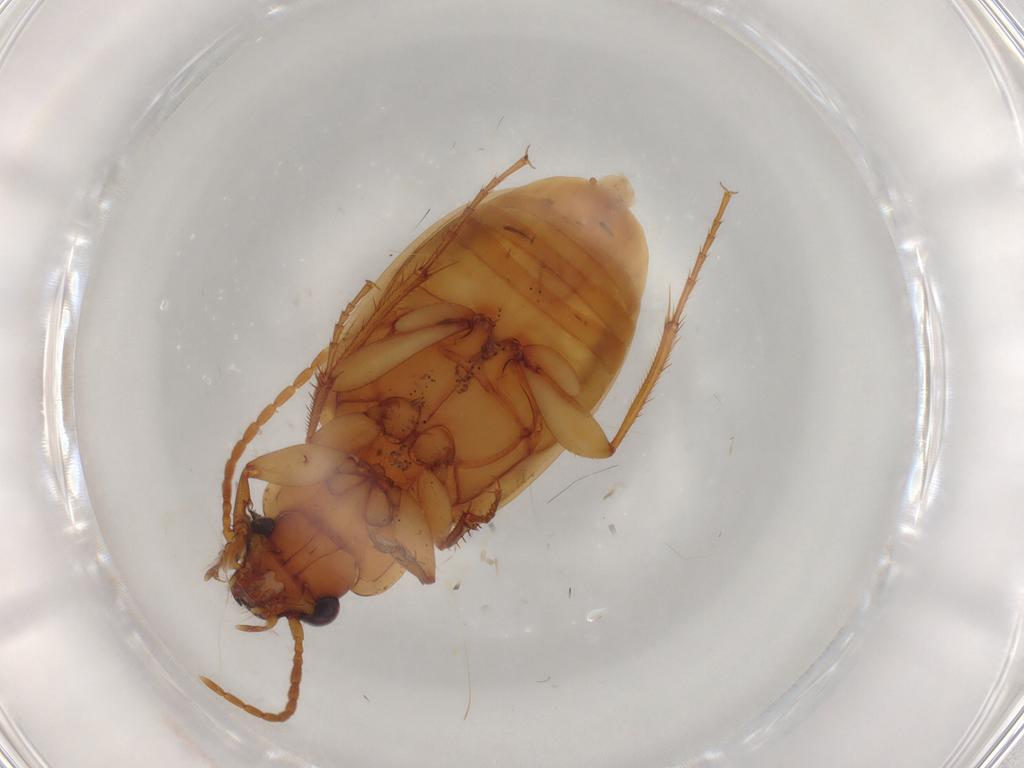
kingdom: Animalia
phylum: Arthropoda
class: Insecta
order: Coleoptera
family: Carabidae
